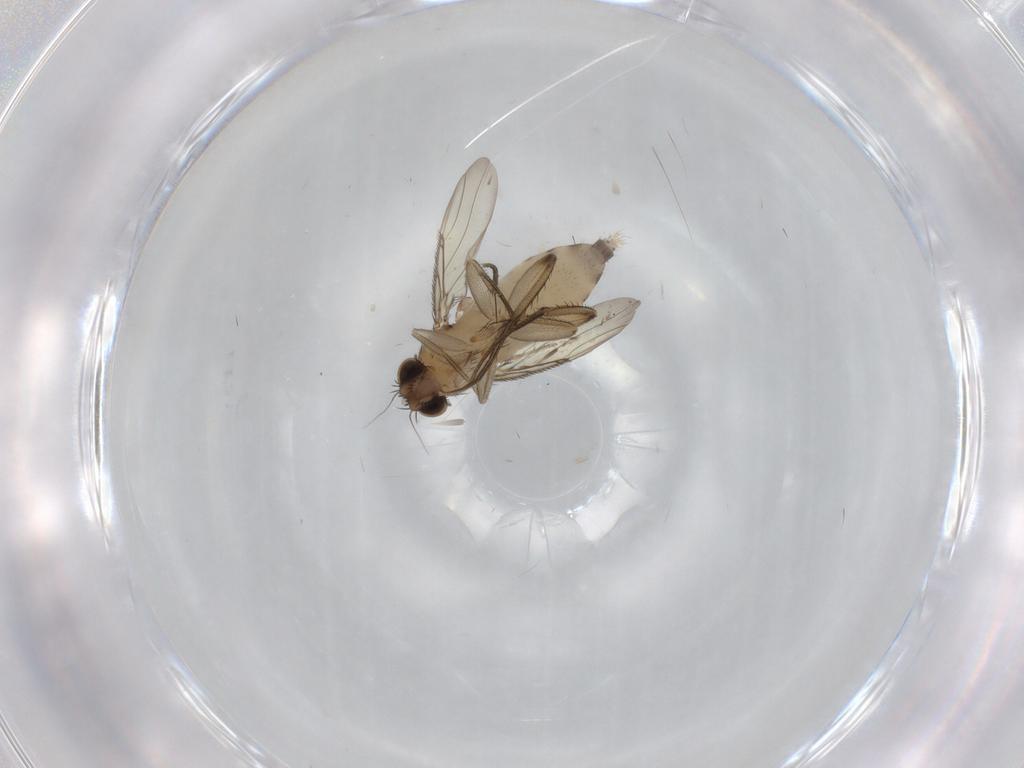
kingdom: Animalia
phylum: Arthropoda
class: Insecta
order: Diptera
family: Phoridae
